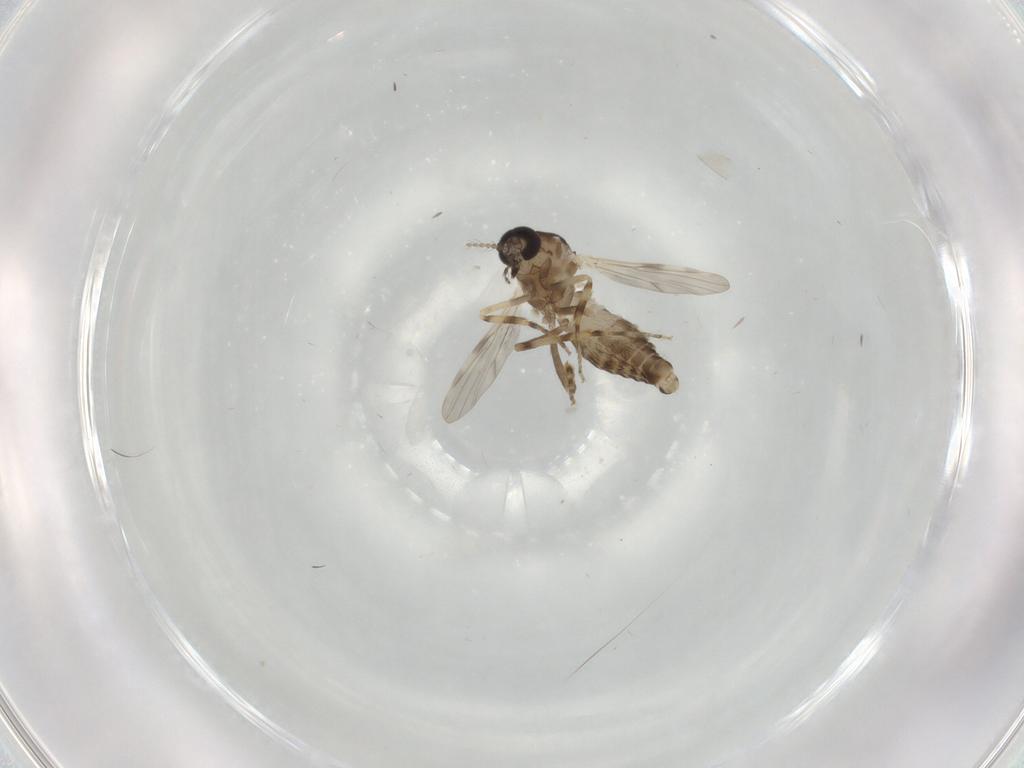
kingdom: Animalia
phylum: Arthropoda
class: Insecta
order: Diptera
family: Ceratopogonidae
